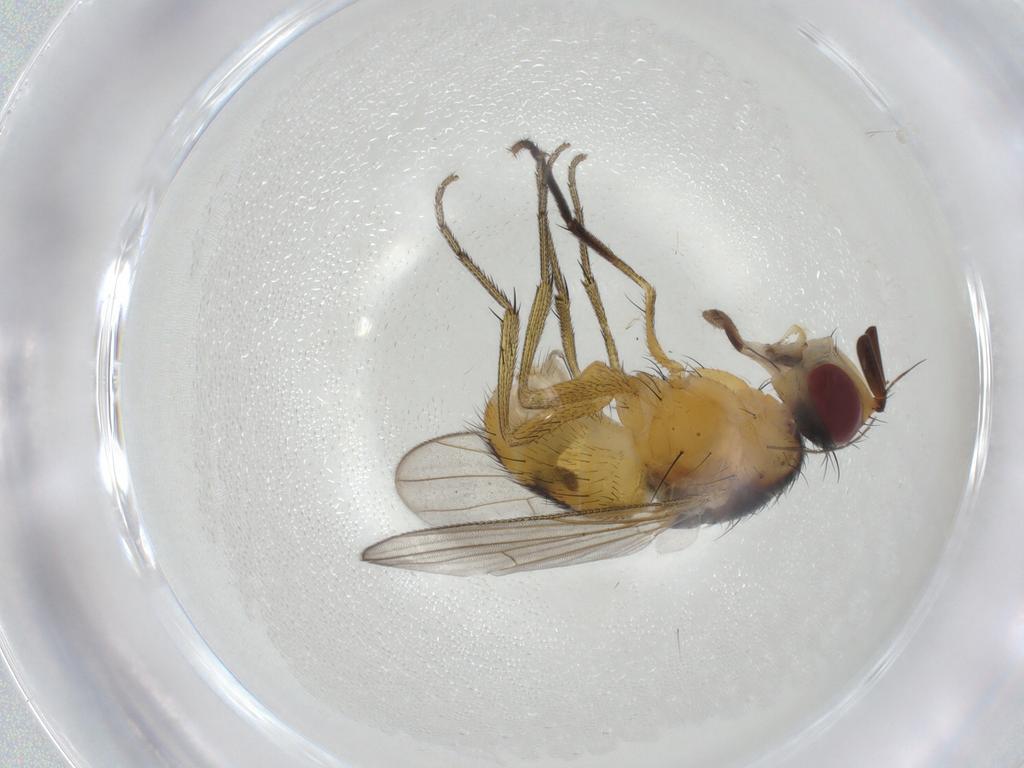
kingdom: Animalia
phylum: Arthropoda
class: Insecta
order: Diptera
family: Muscidae
